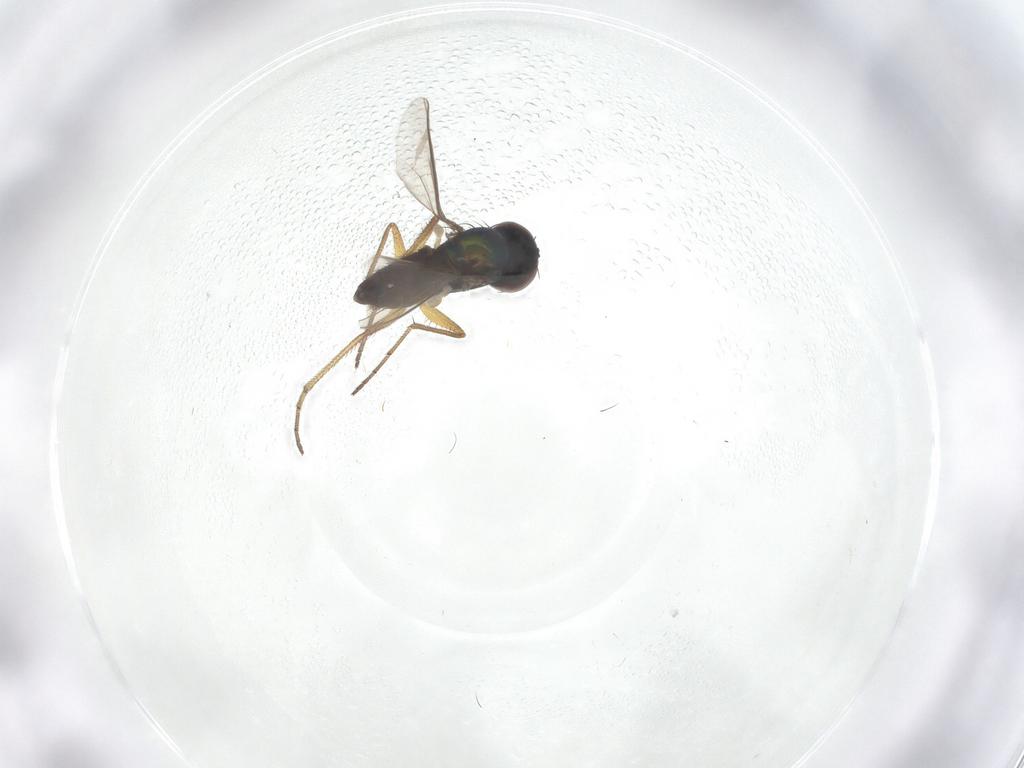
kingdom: Animalia
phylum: Arthropoda
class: Insecta
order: Diptera
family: Dolichopodidae
